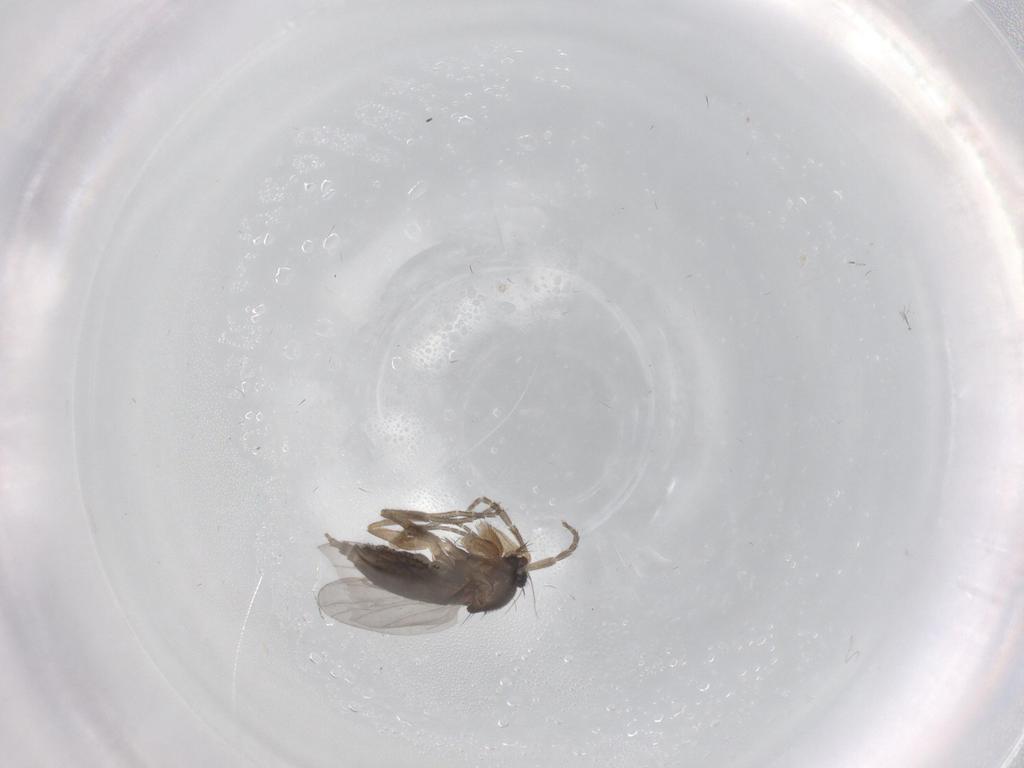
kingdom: Animalia
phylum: Arthropoda
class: Insecta
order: Diptera
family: Phoridae
